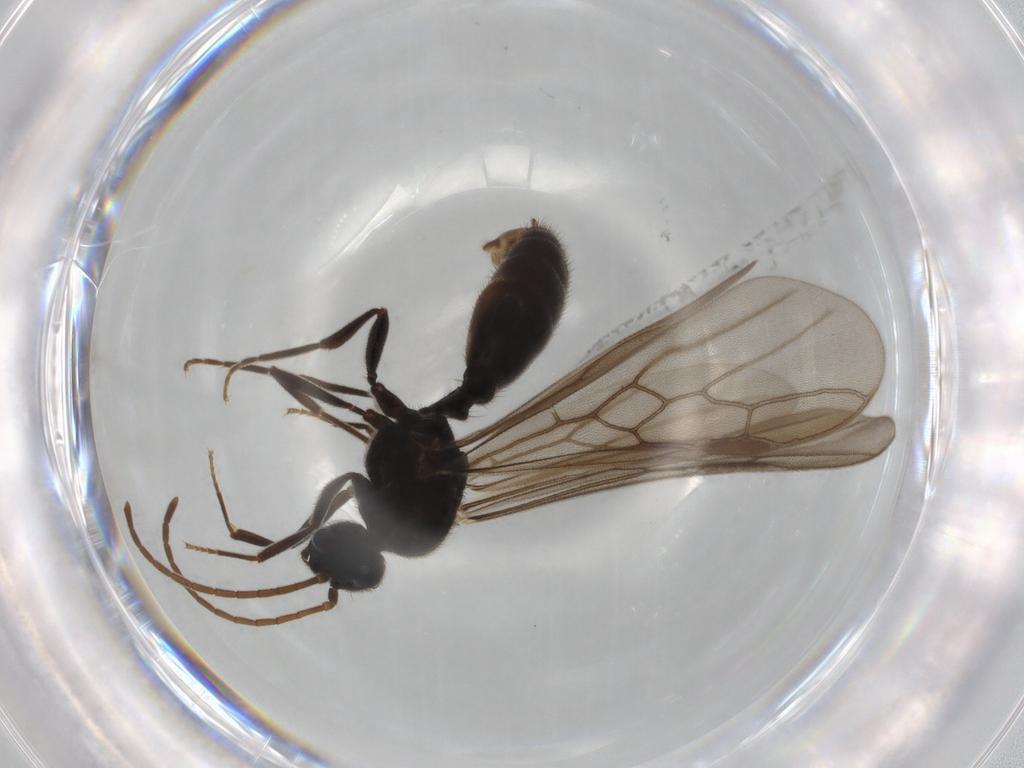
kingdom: Animalia
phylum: Arthropoda
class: Insecta
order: Hymenoptera
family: Formicidae
